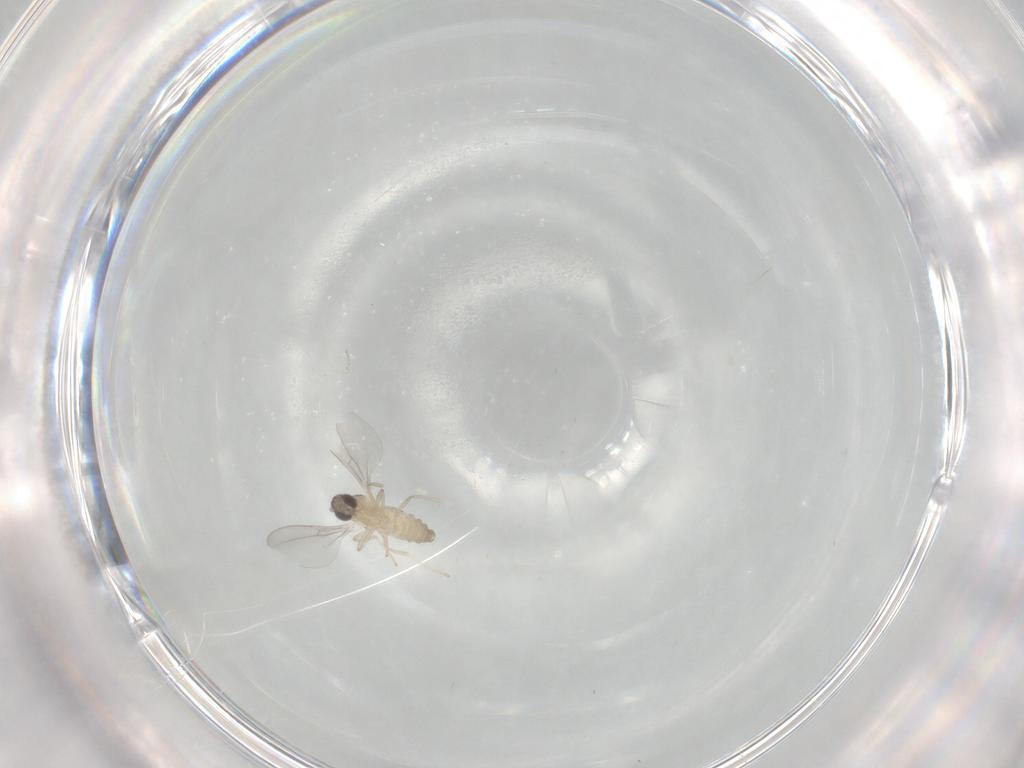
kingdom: Animalia
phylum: Arthropoda
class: Insecta
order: Diptera
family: Cecidomyiidae
